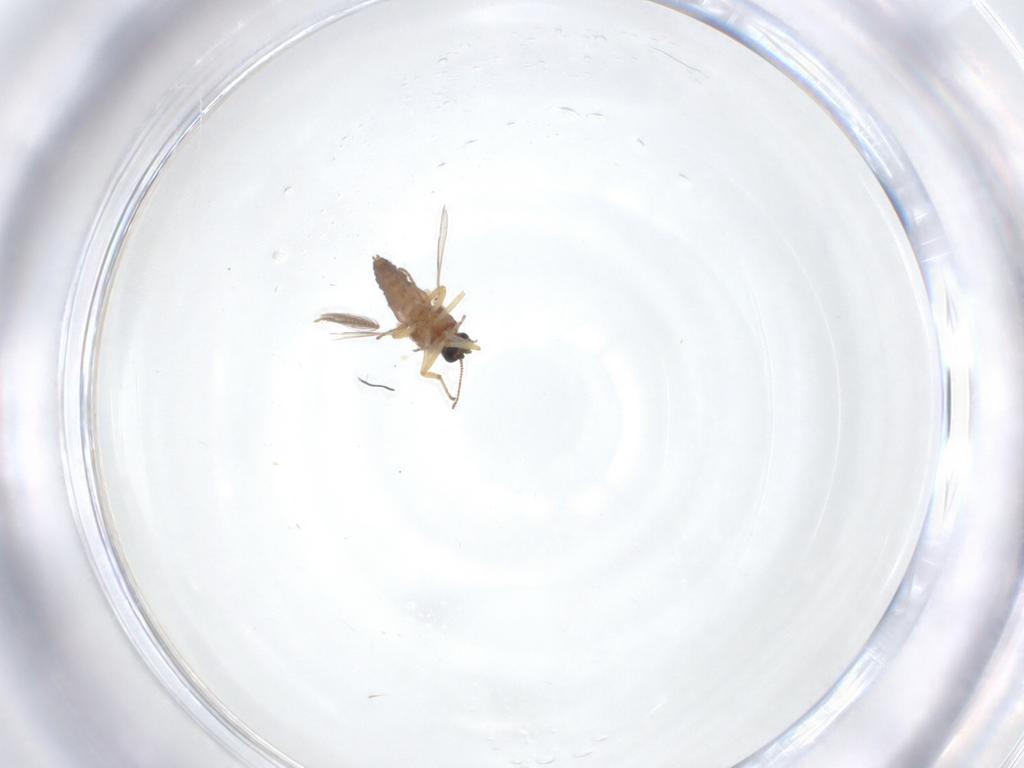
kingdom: Animalia
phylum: Arthropoda
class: Insecta
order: Diptera
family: Ceratopogonidae
